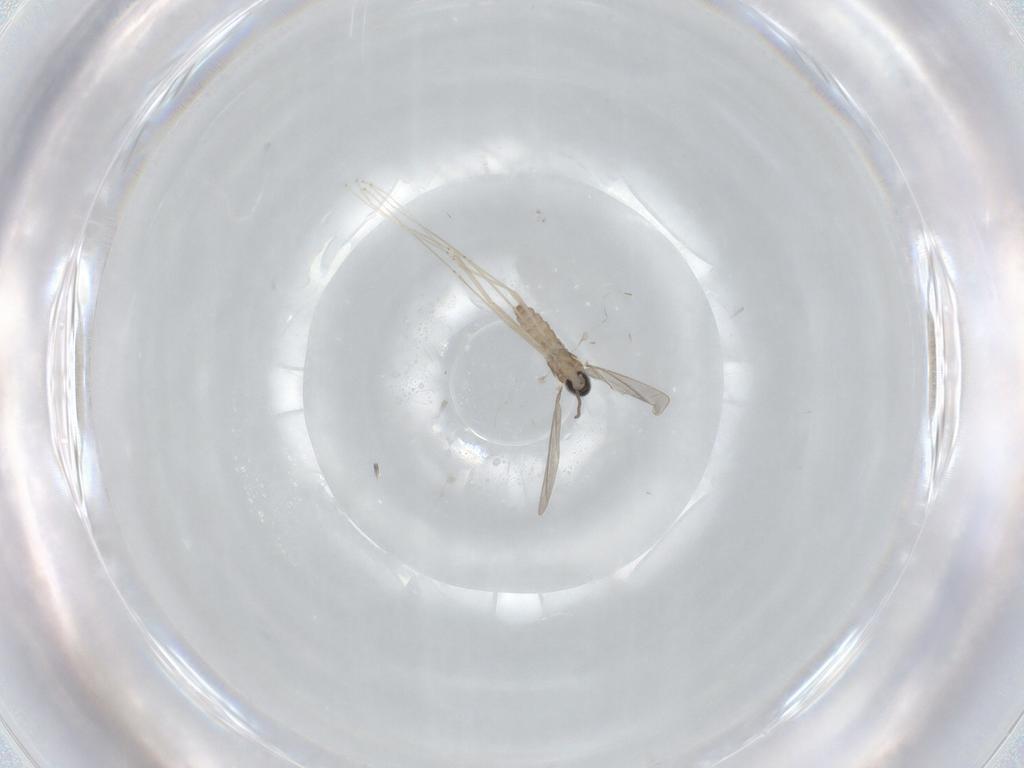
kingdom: Animalia
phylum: Arthropoda
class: Insecta
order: Diptera
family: Cecidomyiidae
